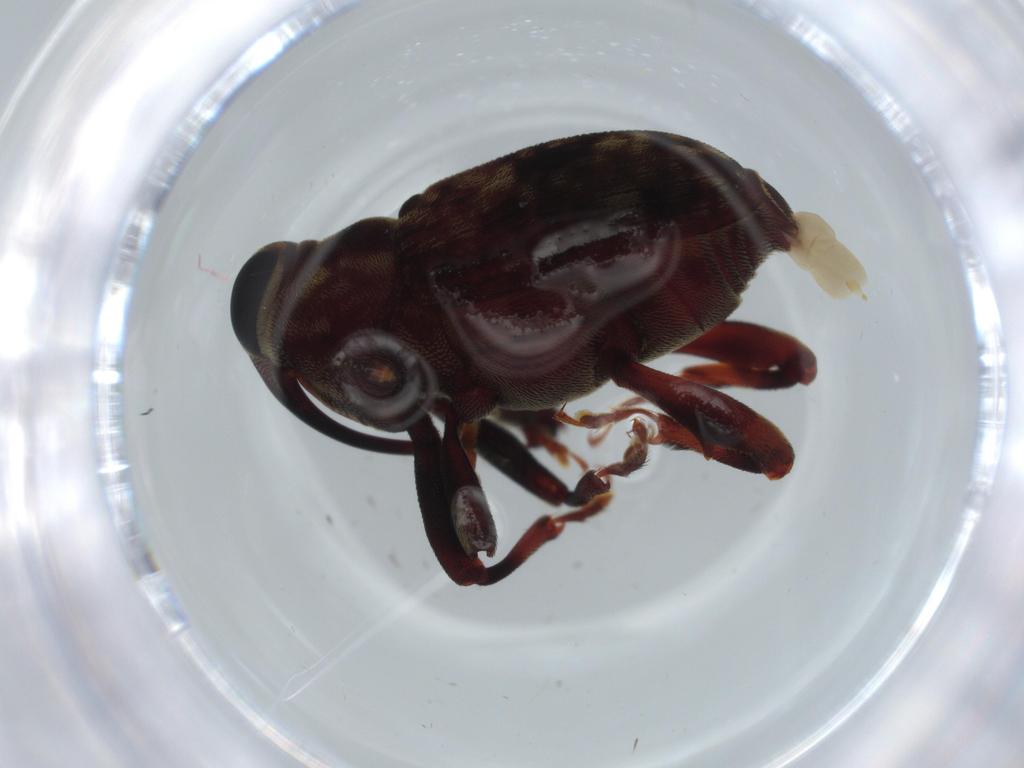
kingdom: Animalia
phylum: Arthropoda
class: Insecta
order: Coleoptera
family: Curculionidae
